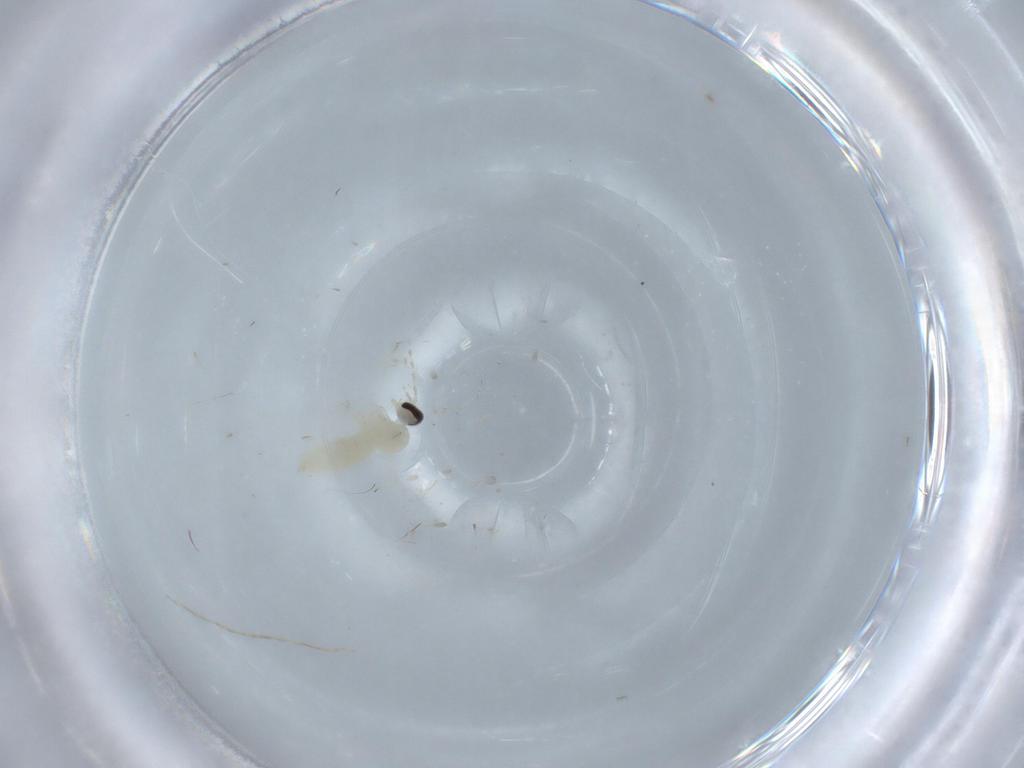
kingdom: Animalia
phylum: Arthropoda
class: Insecta
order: Diptera
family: Cecidomyiidae
